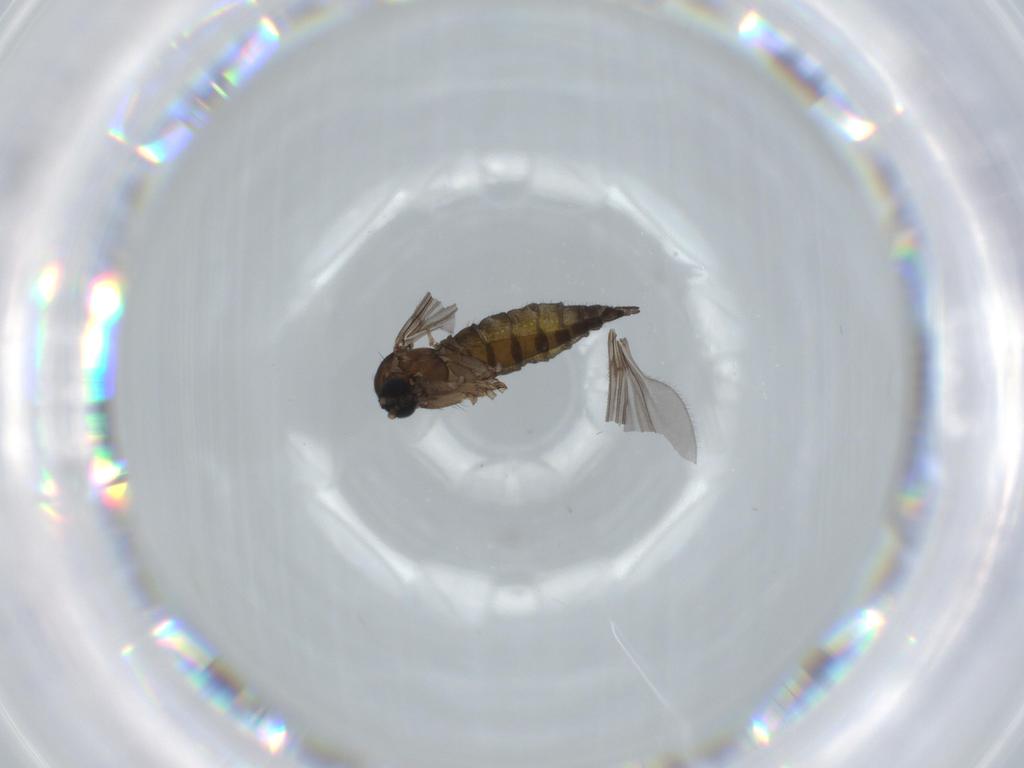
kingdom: Animalia
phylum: Arthropoda
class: Insecta
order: Diptera
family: Sciaridae
